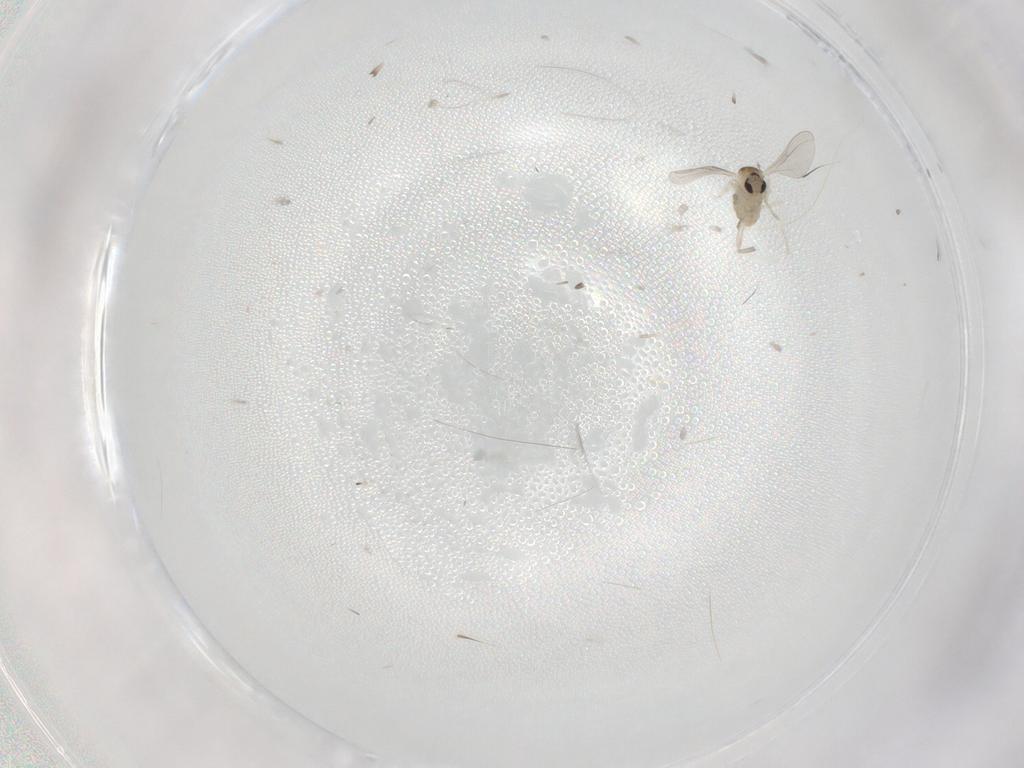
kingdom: Animalia
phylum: Arthropoda
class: Insecta
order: Diptera
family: Cecidomyiidae
